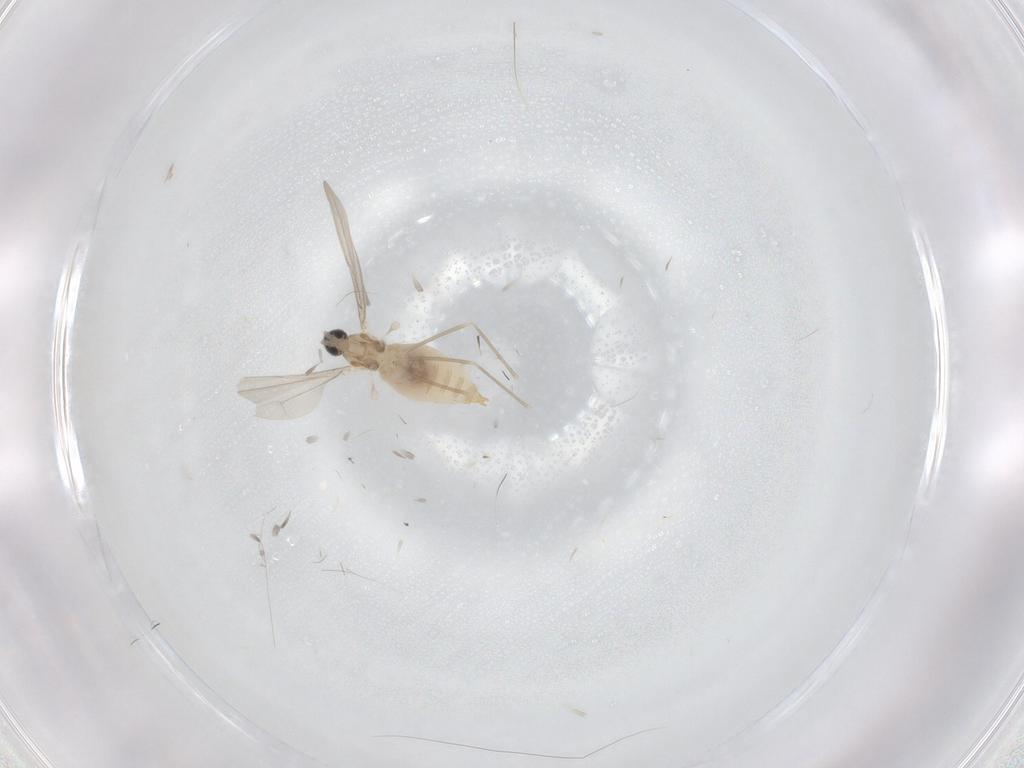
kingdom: Animalia
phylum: Arthropoda
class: Insecta
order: Diptera
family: Cecidomyiidae
